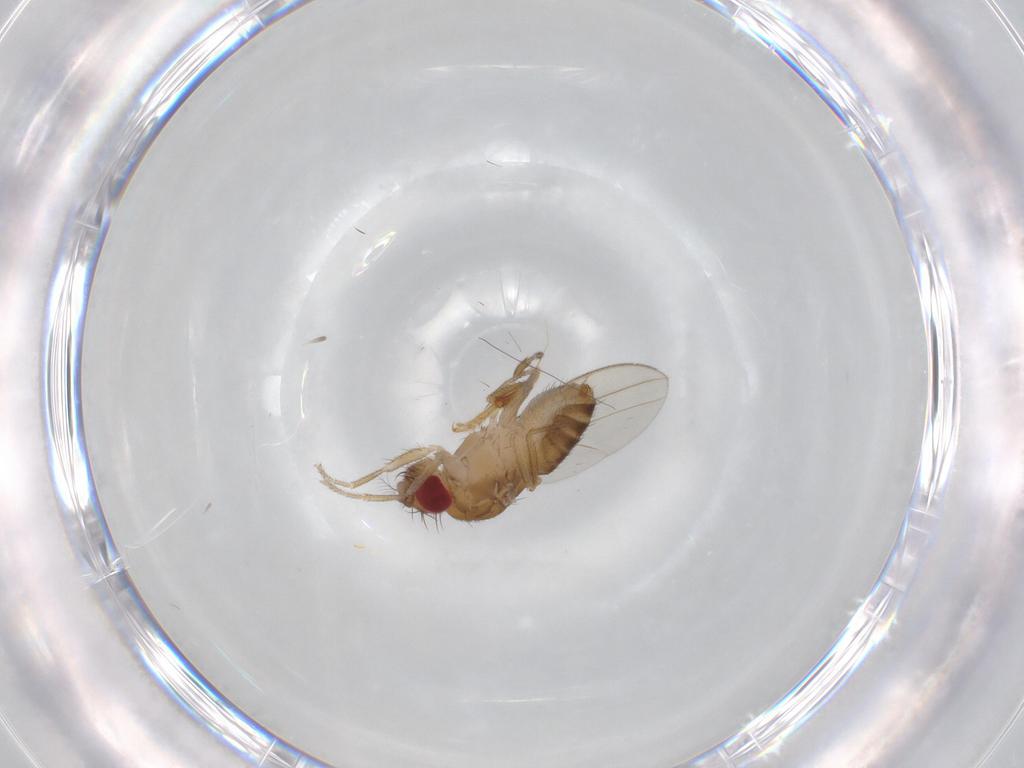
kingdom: Animalia
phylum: Arthropoda
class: Insecta
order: Diptera
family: Drosophilidae
